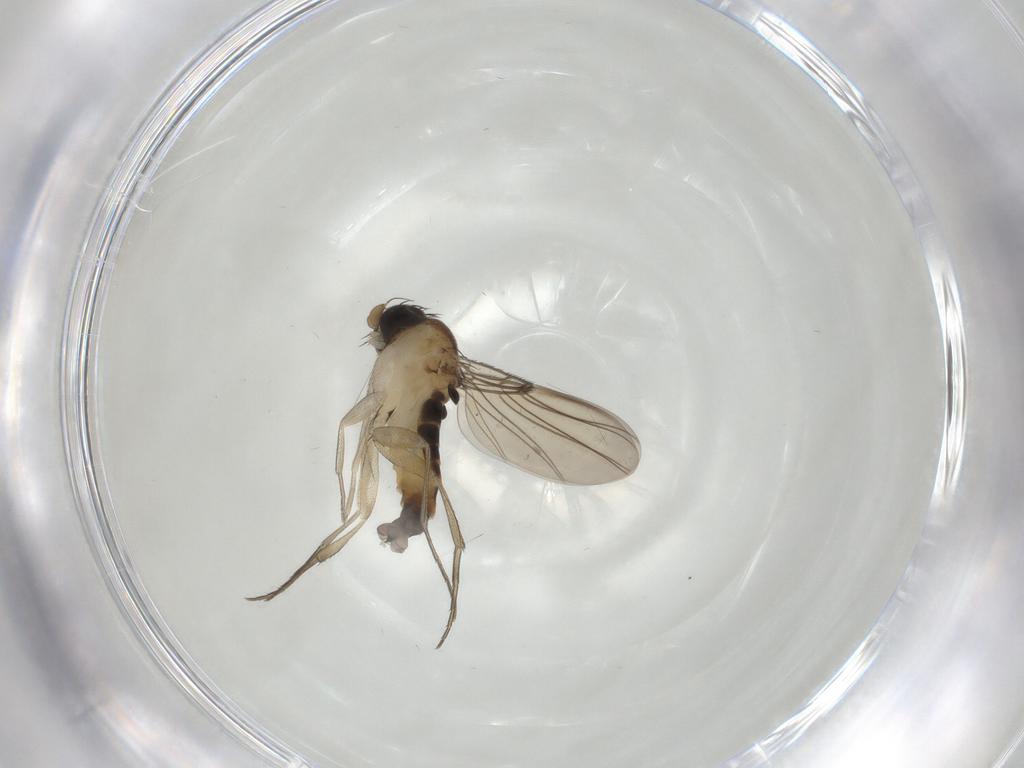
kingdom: Animalia
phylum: Arthropoda
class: Insecta
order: Diptera
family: Phoridae
